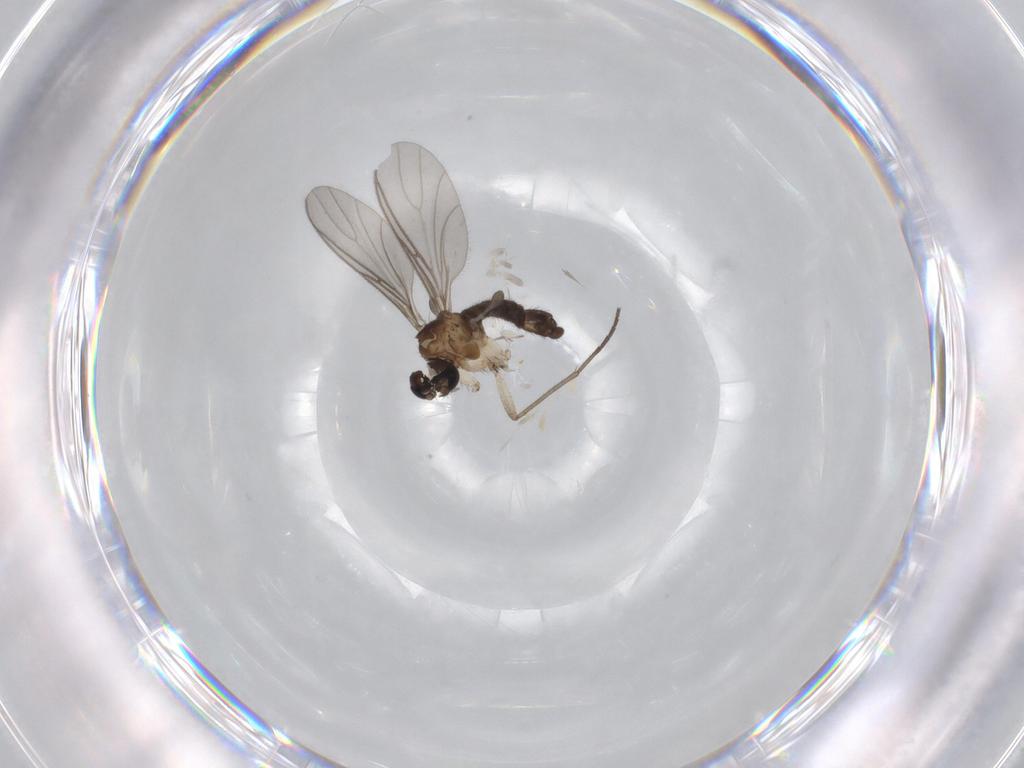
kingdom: Animalia
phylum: Arthropoda
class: Insecta
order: Diptera
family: Sciaridae
